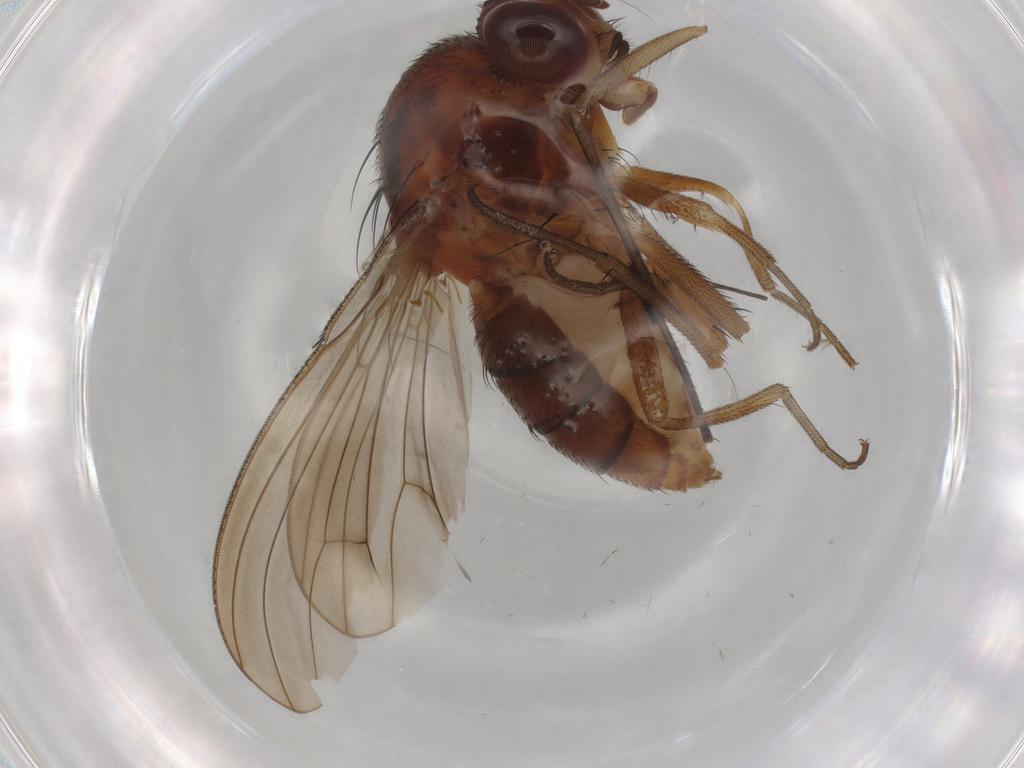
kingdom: Animalia
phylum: Arthropoda
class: Insecta
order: Diptera
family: Curtonotidae
